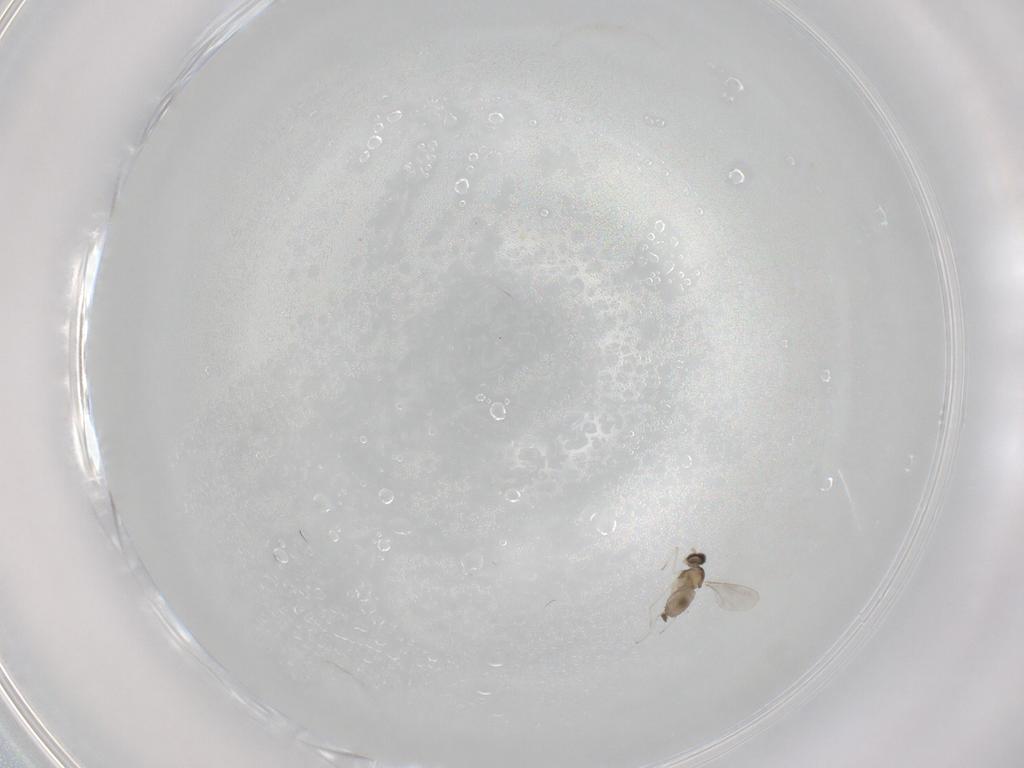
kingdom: Animalia
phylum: Arthropoda
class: Insecta
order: Diptera
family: Cecidomyiidae
